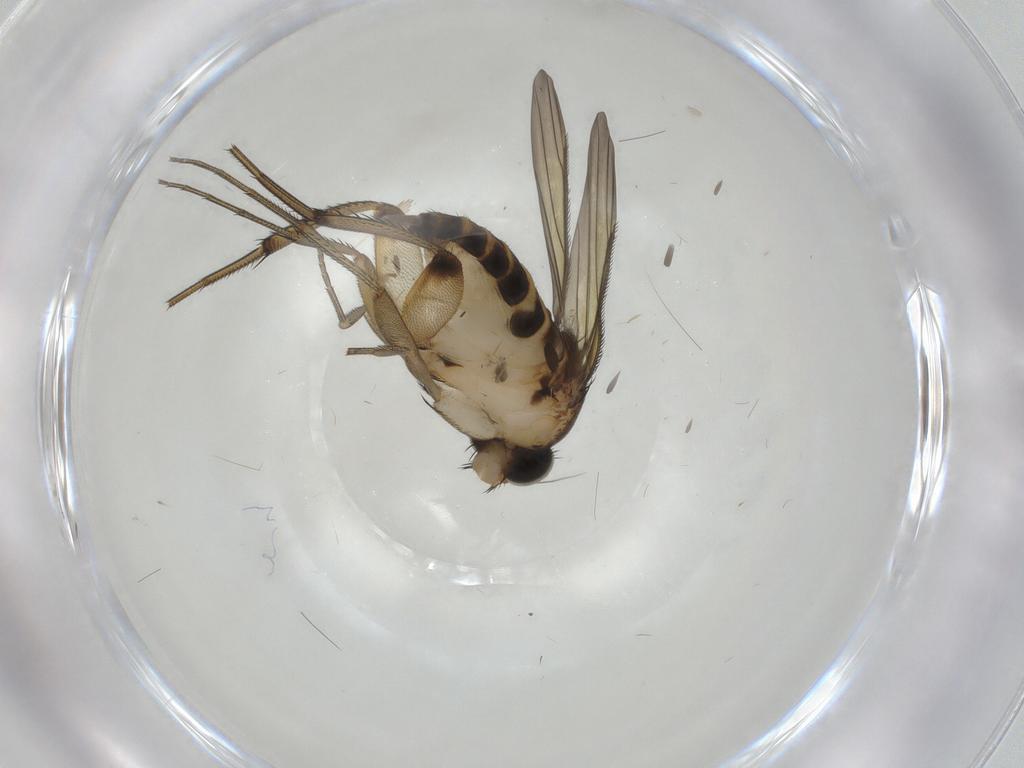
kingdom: Animalia
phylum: Arthropoda
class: Insecta
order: Diptera
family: Phoridae
